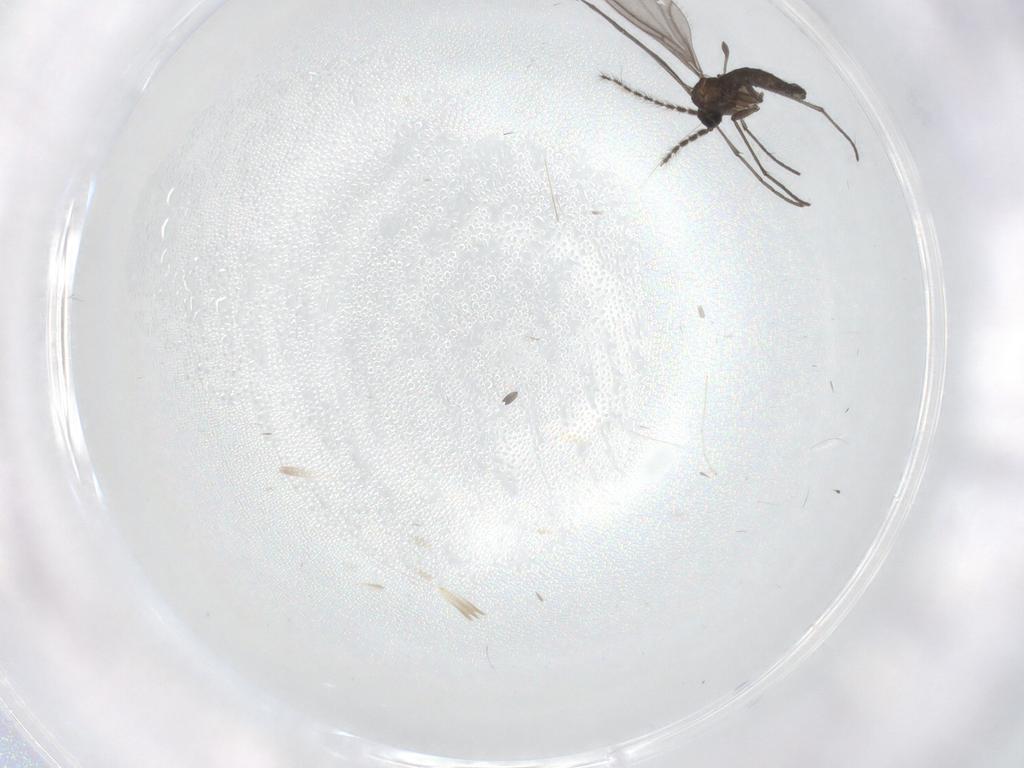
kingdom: Animalia
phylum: Arthropoda
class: Insecta
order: Diptera
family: Sciaridae
